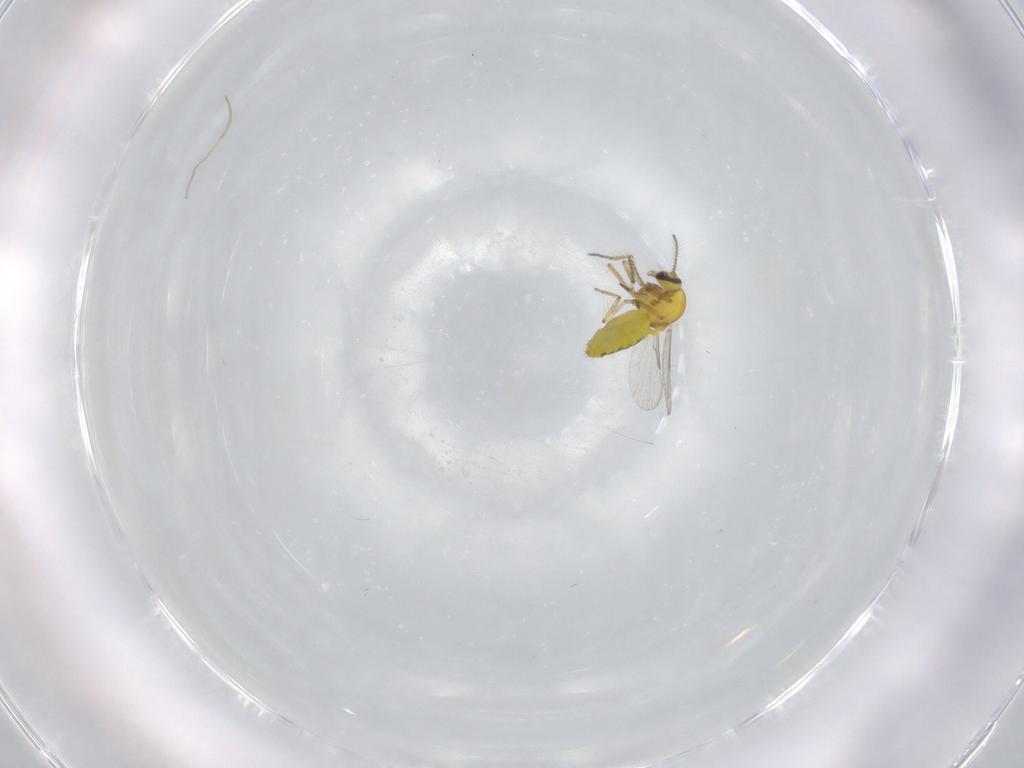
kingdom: Animalia
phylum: Arthropoda
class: Insecta
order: Diptera
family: Ceratopogonidae
